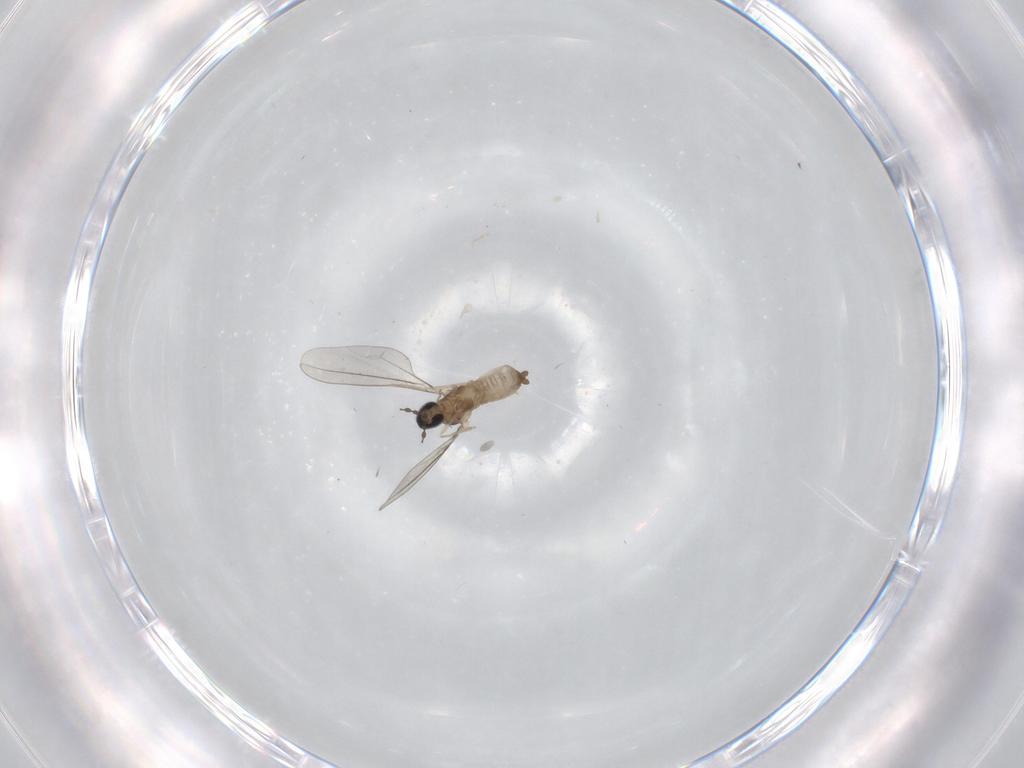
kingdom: Animalia
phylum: Arthropoda
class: Insecta
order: Diptera
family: Cecidomyiidae
